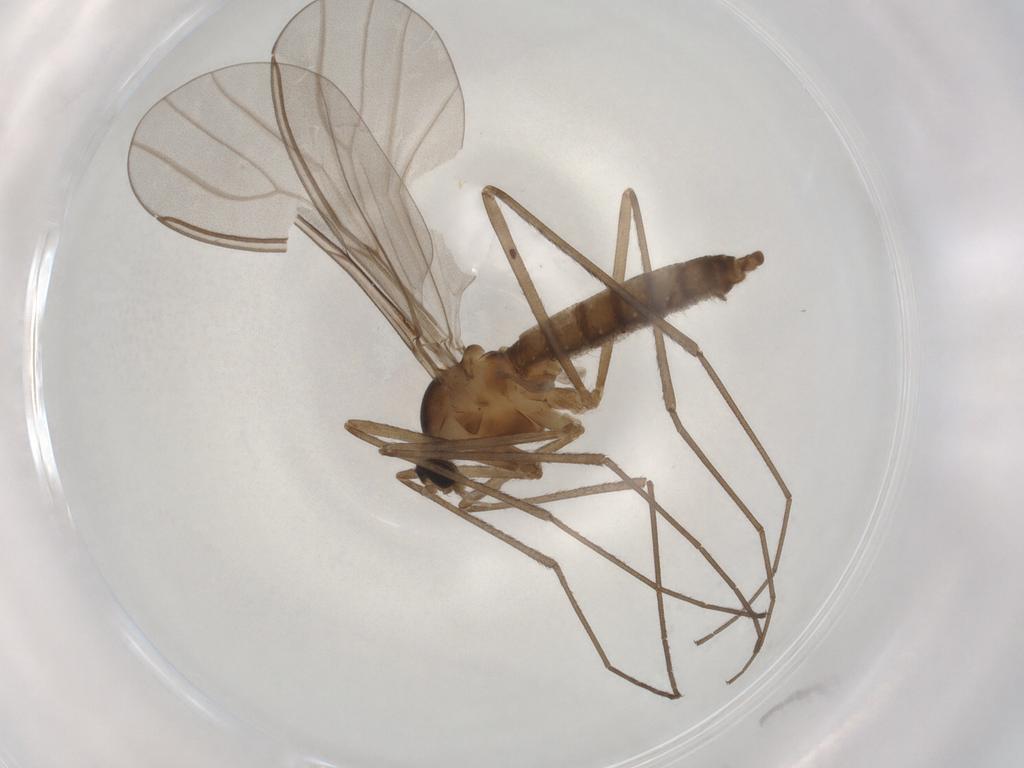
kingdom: Animalia
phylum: Arthropoda
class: Insecta
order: Diptera
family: Cecidomyiidae
